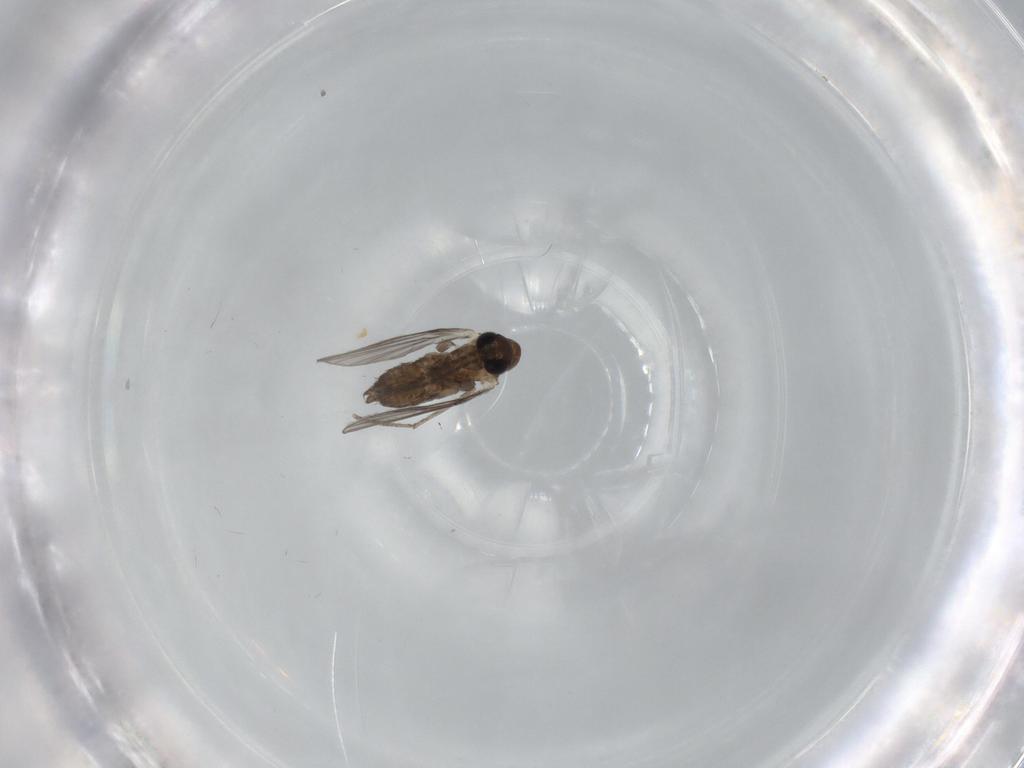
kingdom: Animalia
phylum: Arthropoda
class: Insecta
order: Diptera
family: Psychodidae
